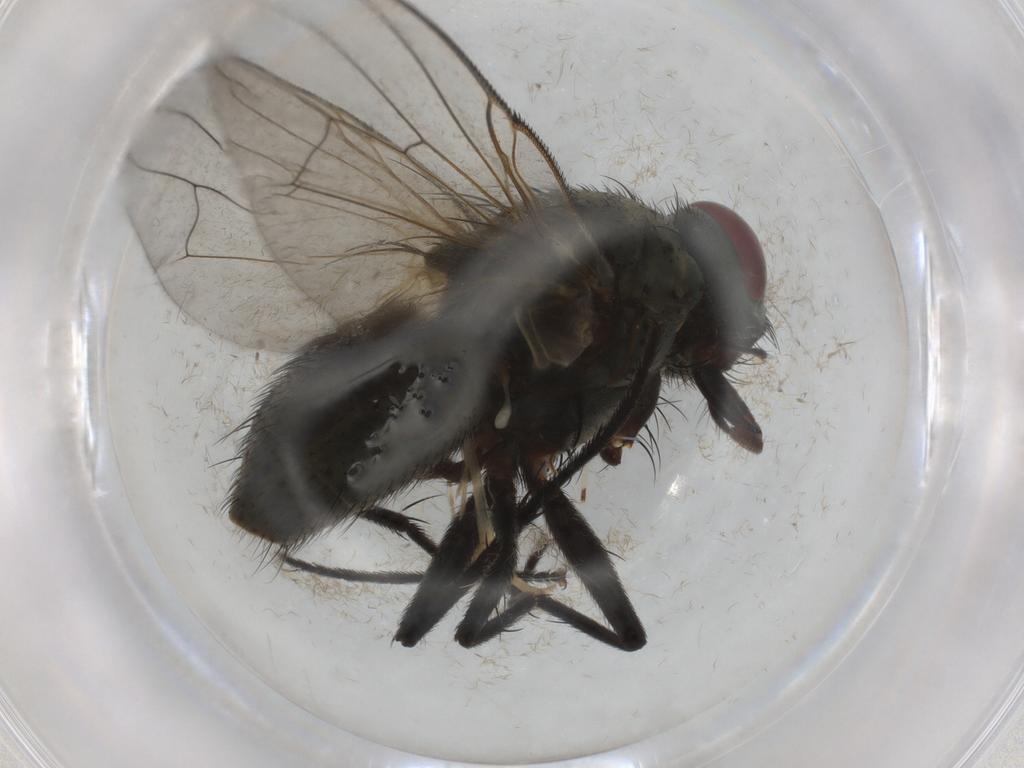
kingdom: Animalia
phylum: Arthropoda
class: Insecta
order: Diptera
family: Muscidae
